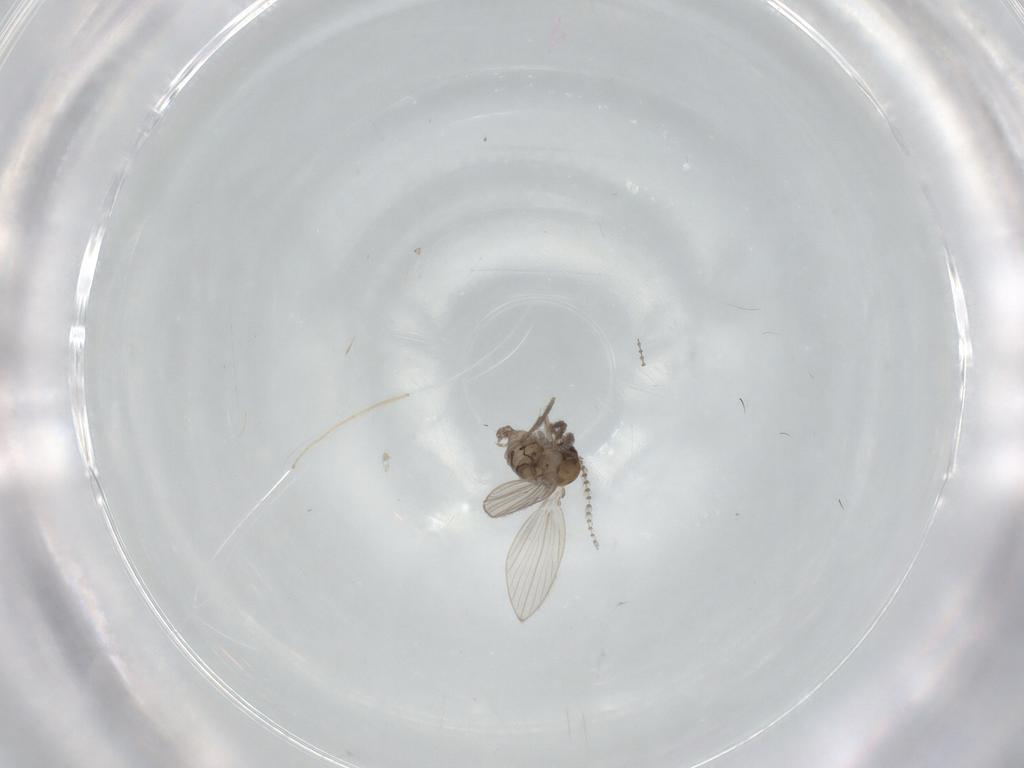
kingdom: Animalia
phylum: Arthropoda
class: Insecta
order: Diptera
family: Psychodidae
